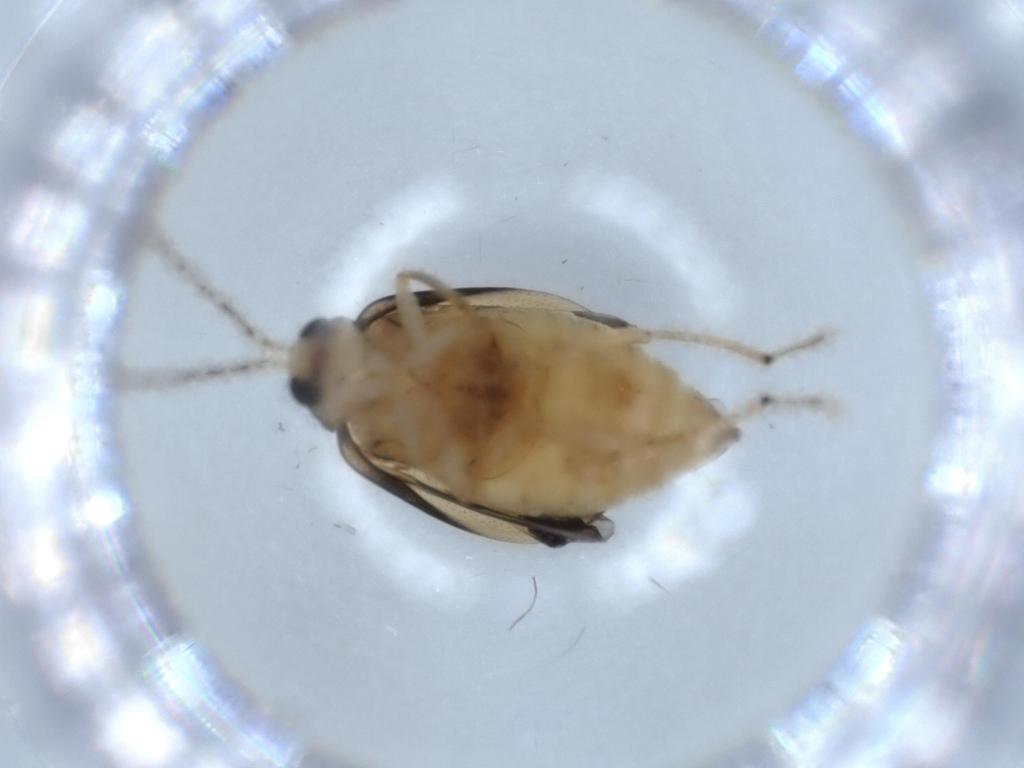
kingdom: Animalia
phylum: Arthropoda
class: Insecta
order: Coleoptera
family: Chrysomelidae
